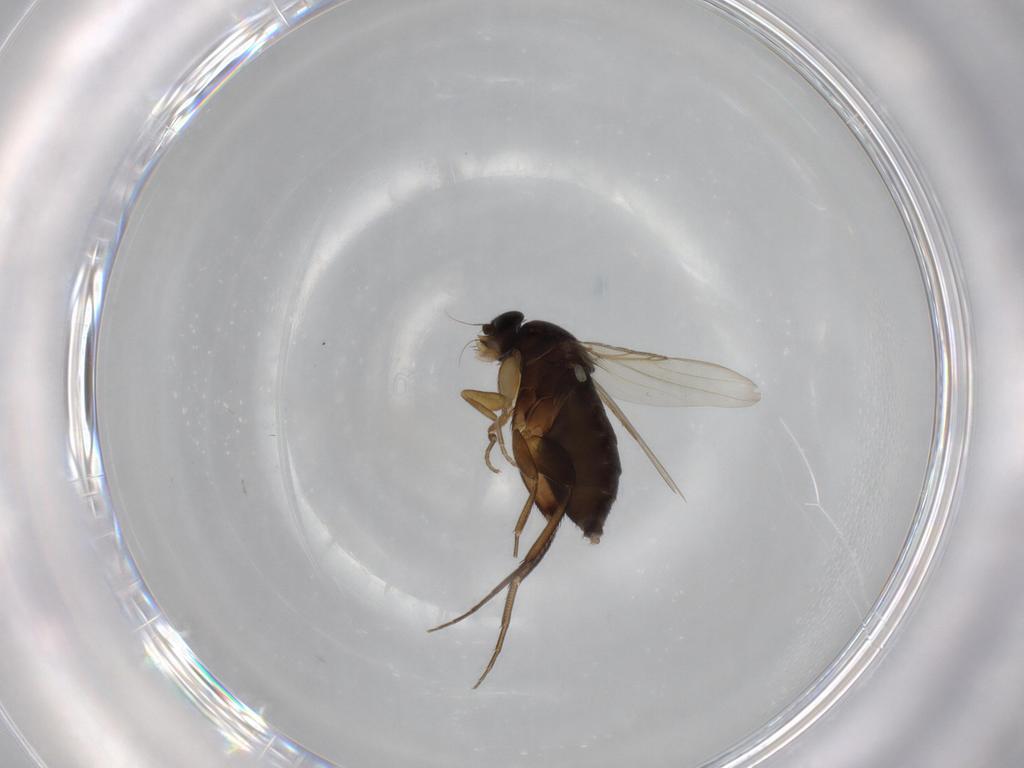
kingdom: Animalia
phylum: Arthropoda
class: Insecta
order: Diptera
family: Phoridae
